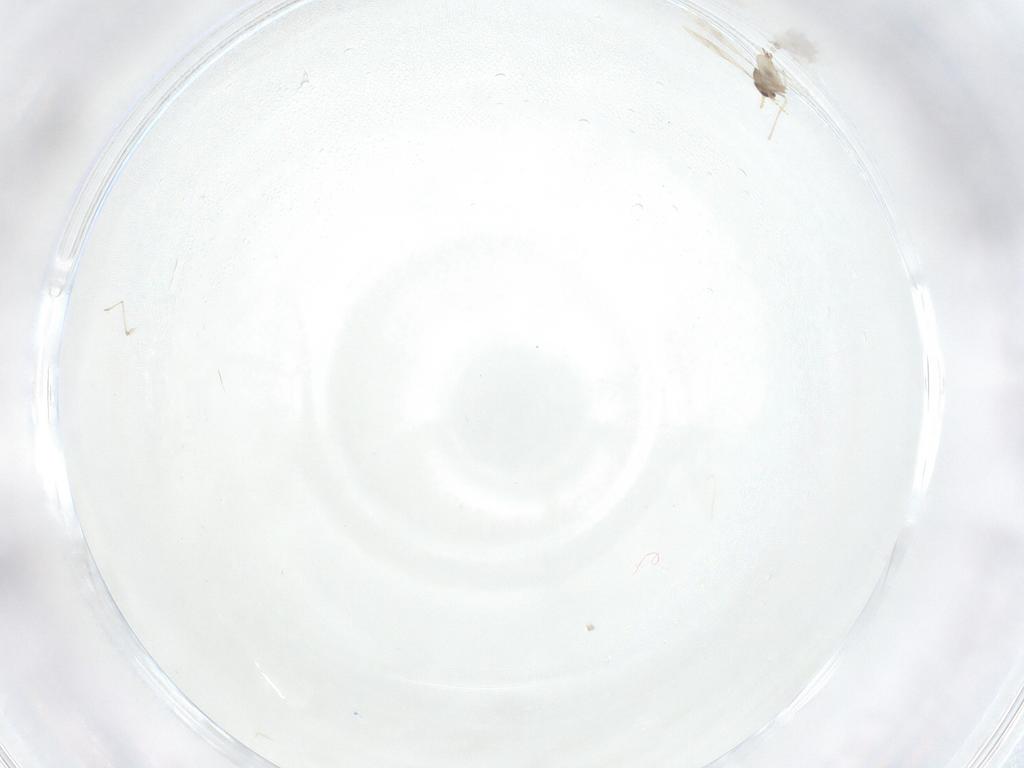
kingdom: Animalia
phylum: Arthropoda
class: Insecta
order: Diptera
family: Cecidomyiidae
